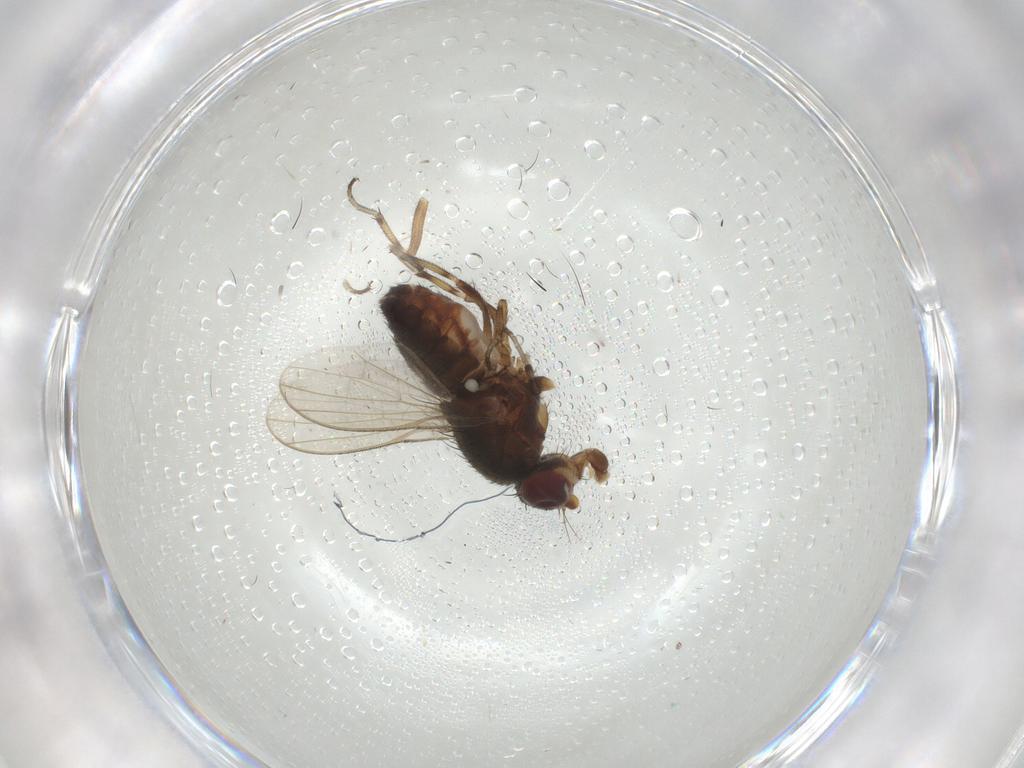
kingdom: Animalia
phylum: Arthropoda
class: Insecta
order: Diptera
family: Heleomyzidae
